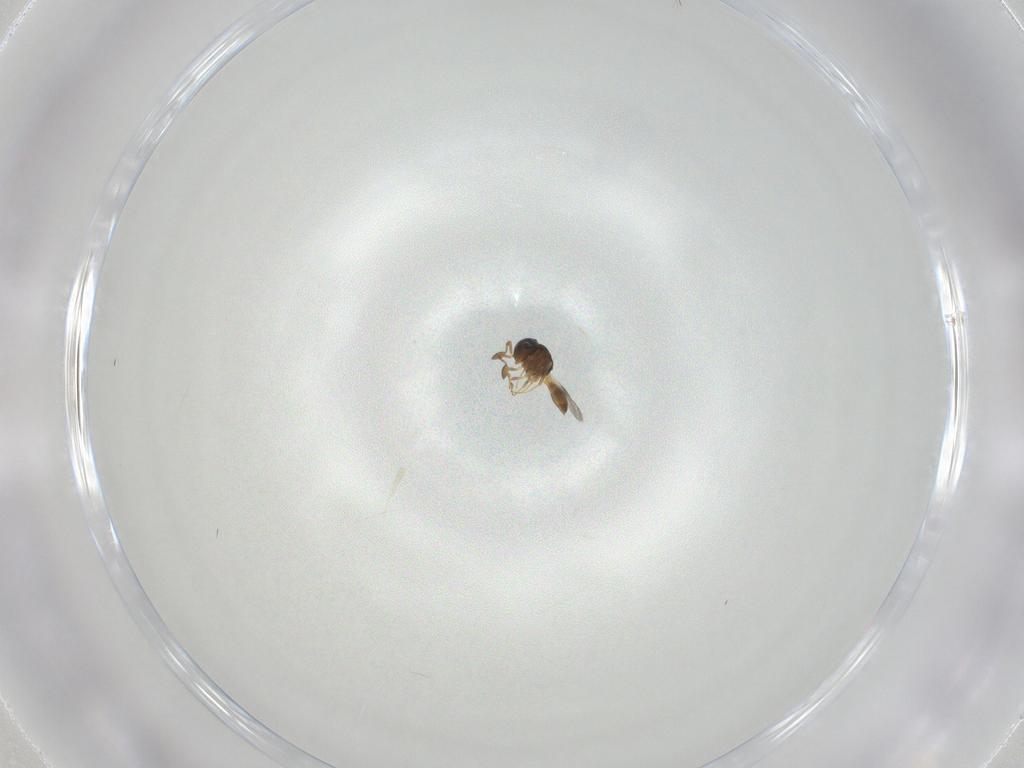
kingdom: Animalia
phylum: Arthropoda
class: Insecta
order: Hymenoptera
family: Scelionidae
